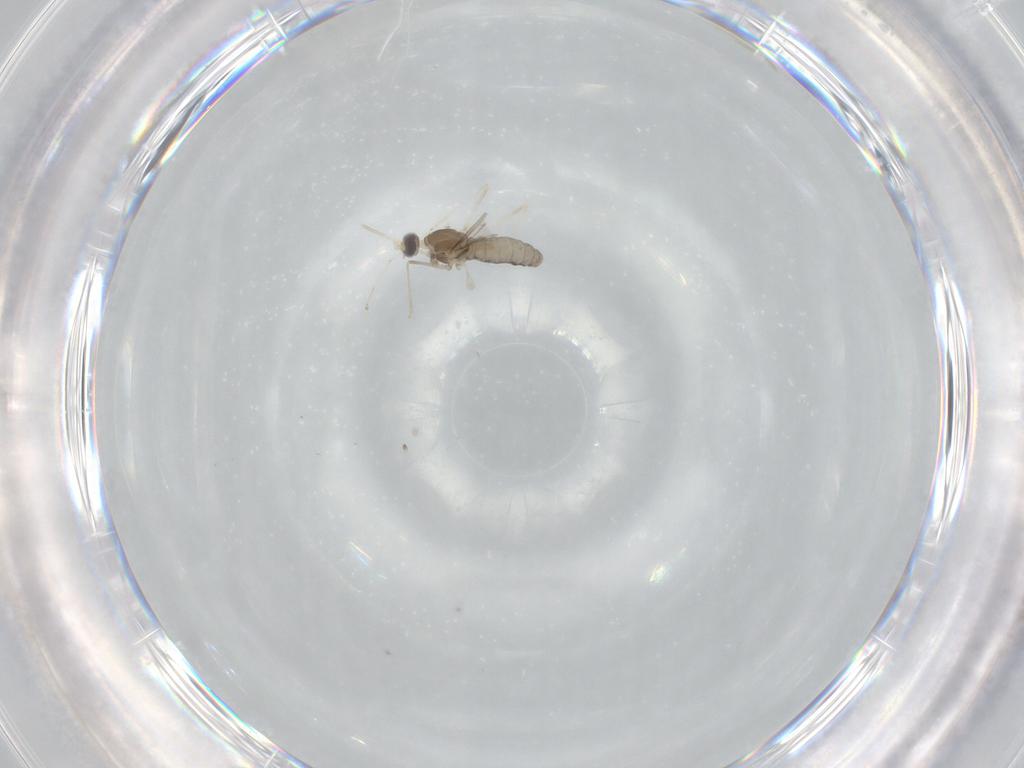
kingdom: Animalia
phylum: Arthropoda
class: Insecta
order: Diptera
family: Cecidomyiidae
